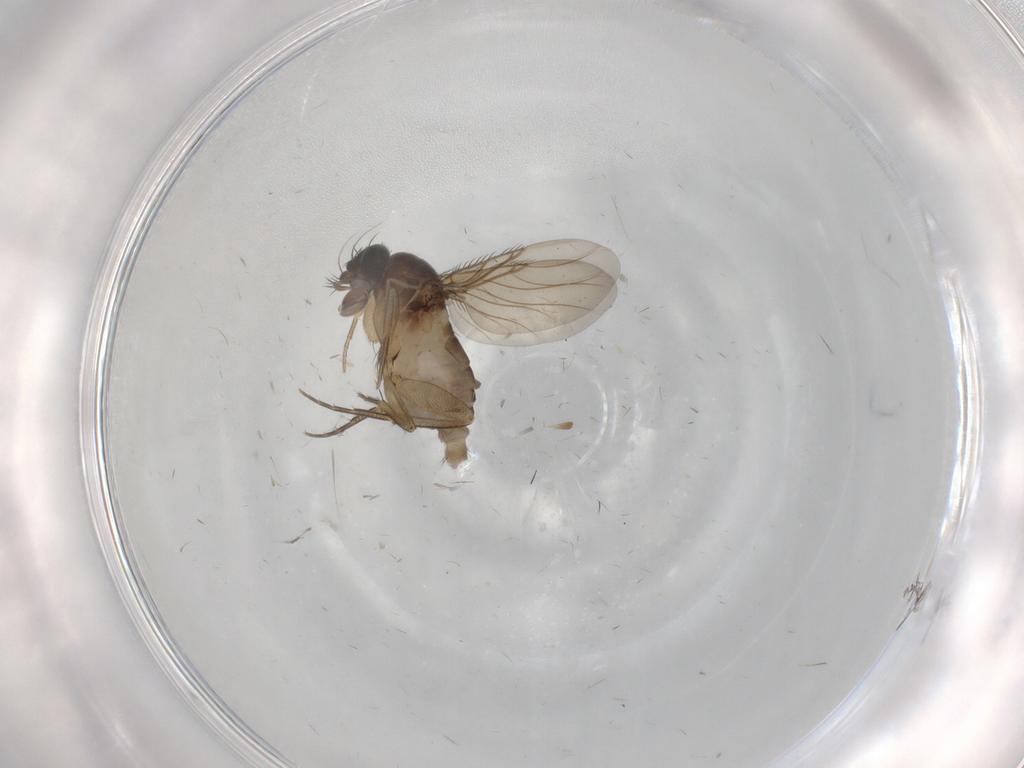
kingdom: Animalia
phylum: Arthropoda
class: Insecta
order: Diptera
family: Phoridae
